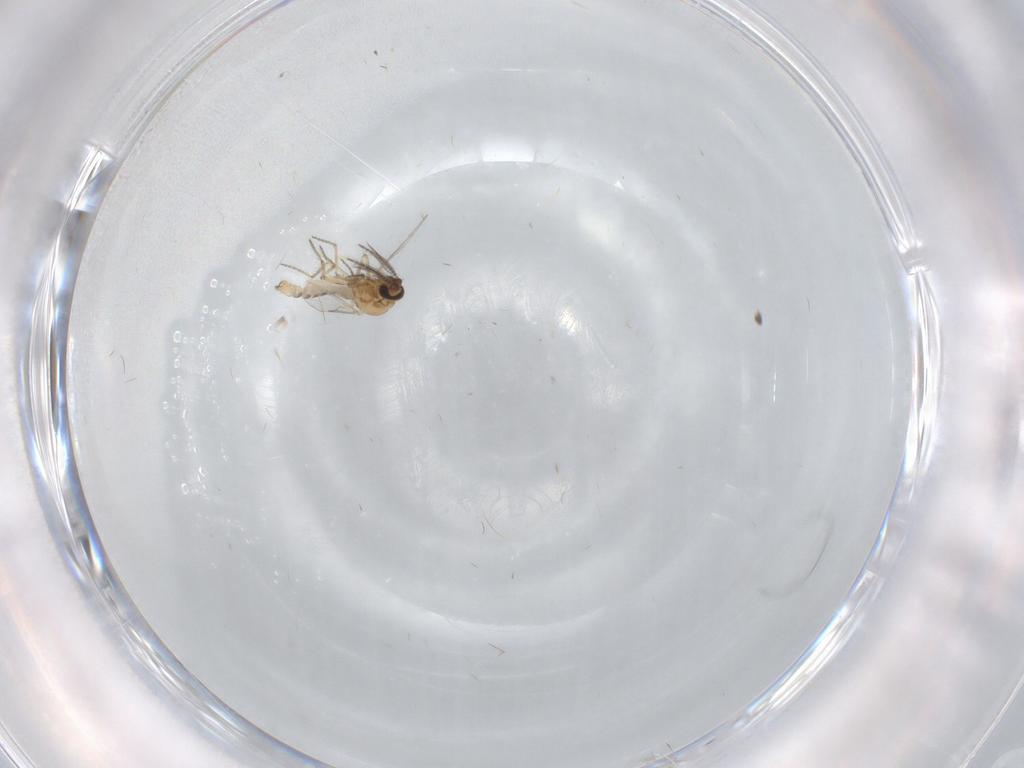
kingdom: Animalia
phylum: Arthropoda
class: Insecta
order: Diptera
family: Ceratopogonidae
